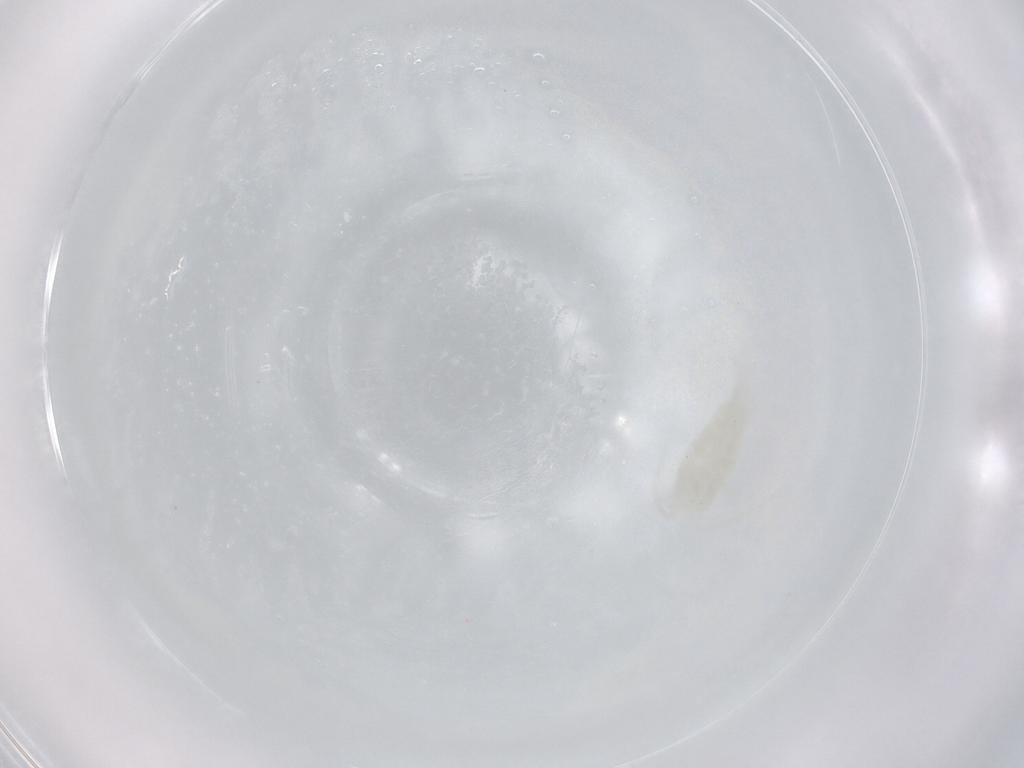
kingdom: Animalia
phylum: Arthropoda
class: Copepoda
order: Calanoida
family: Centropagidae
